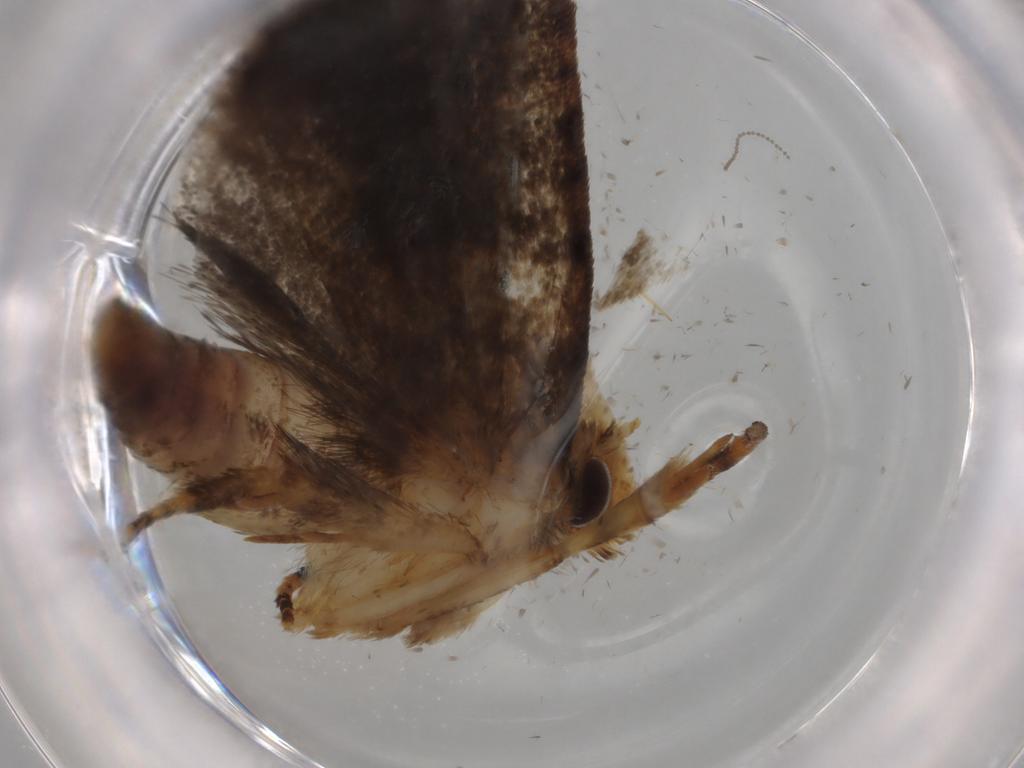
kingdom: Animalia
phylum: Arthropoda
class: Insecta
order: Lepidoptera
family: Tineidae
